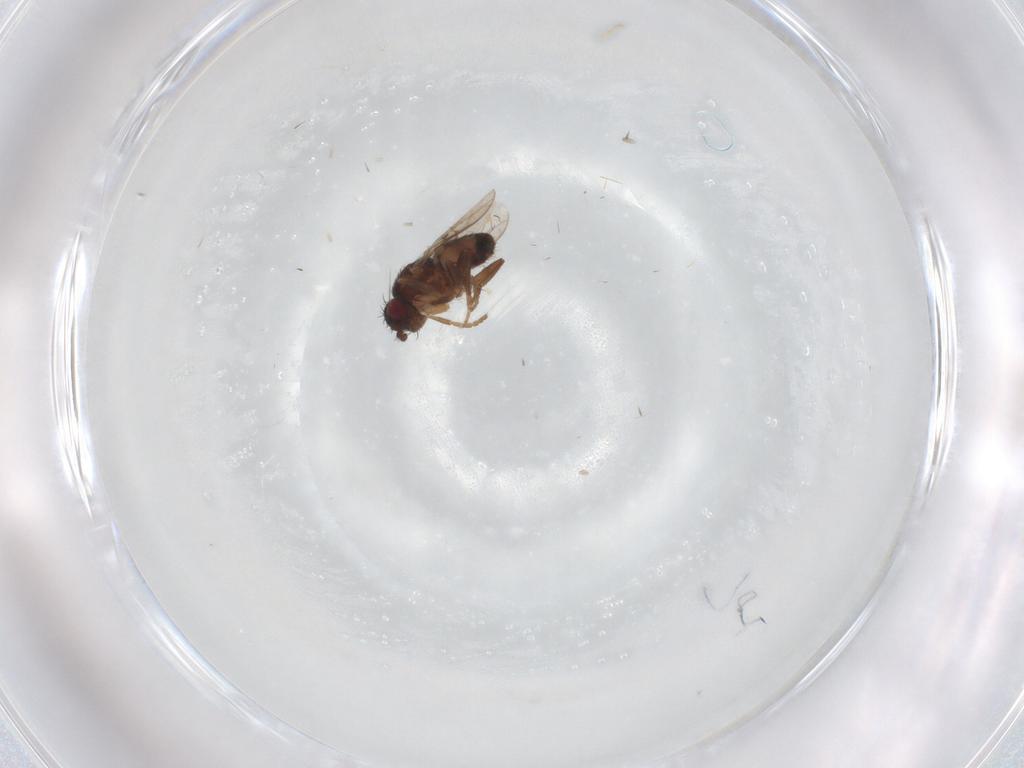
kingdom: Animalia
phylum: Arthropoda
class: Insecta
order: Diptera
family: Sphaeroceridae
